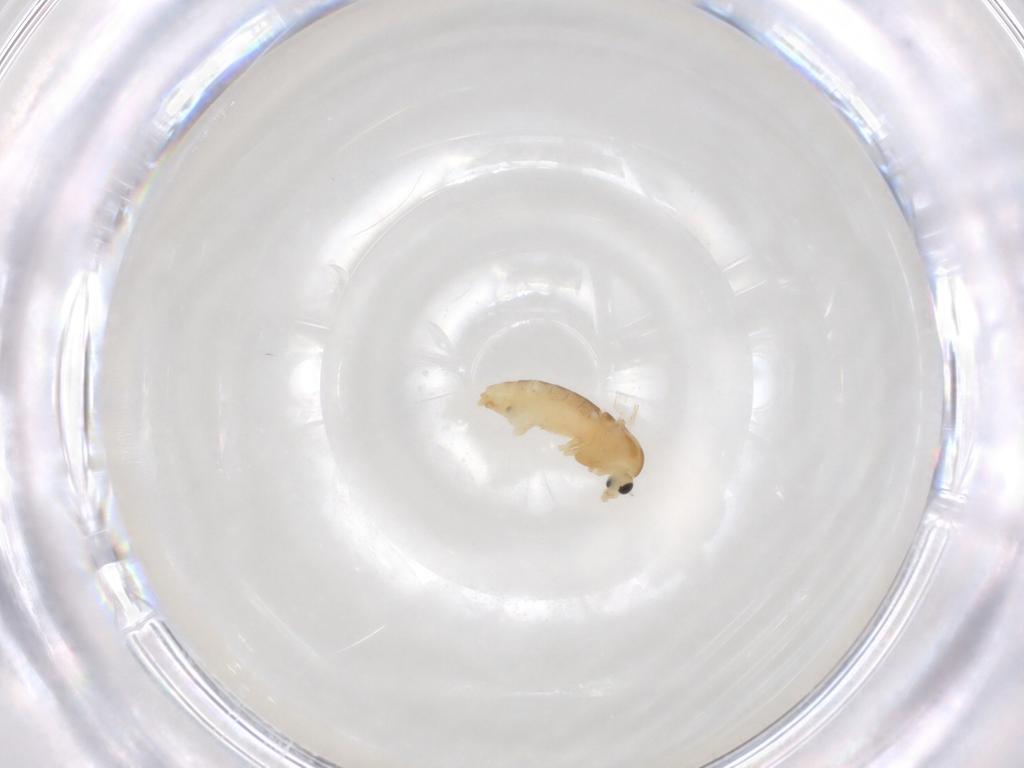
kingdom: Animalia
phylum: Arthropoda
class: Insecta
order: Diptera
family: Chironomidae
